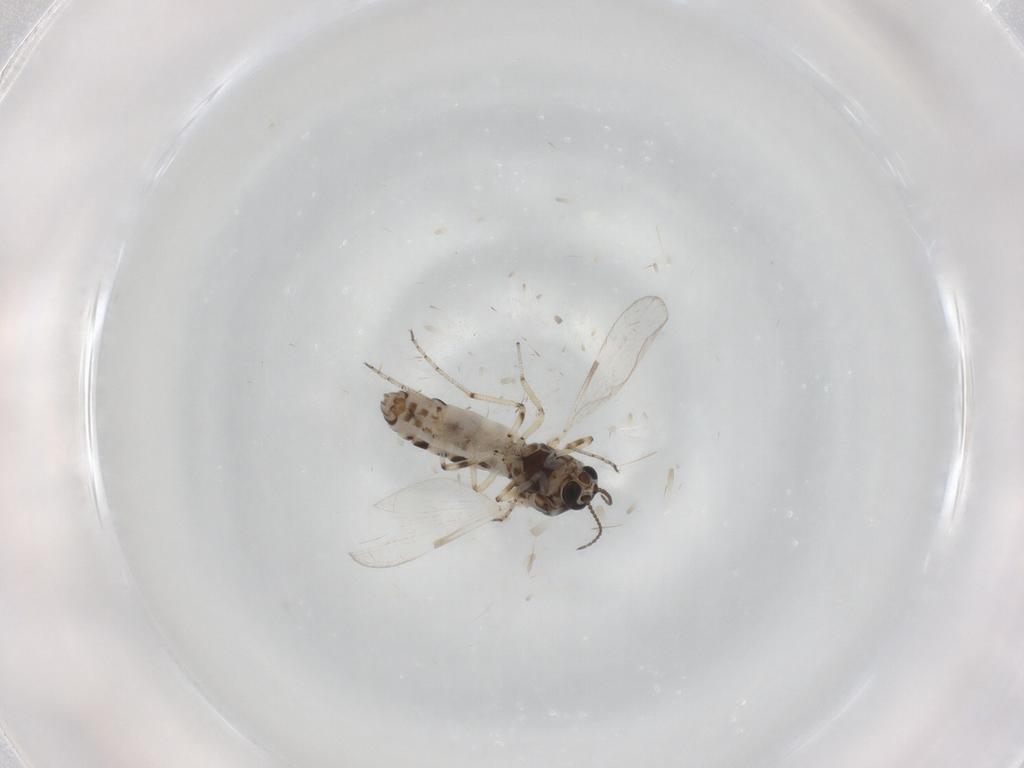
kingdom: Animalia
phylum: Arthropoda
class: Insecta
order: Diptera
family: Ceratopogonidae
